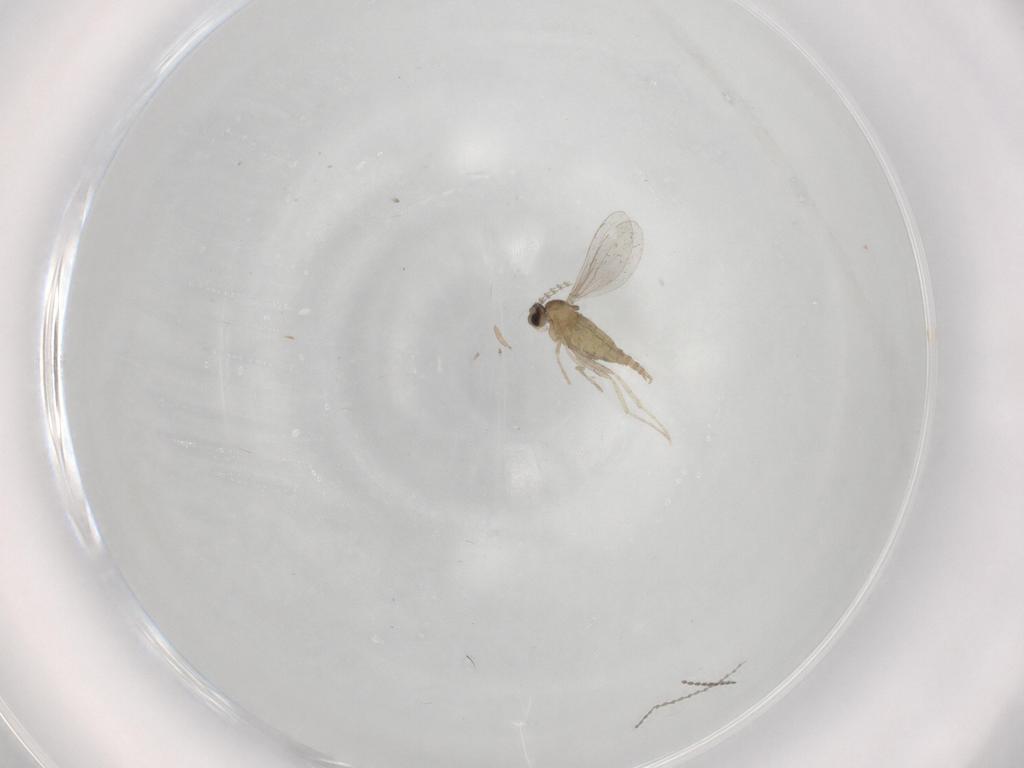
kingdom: Animalia
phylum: Arthropoda
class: Insecta
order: Diptera
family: Cecidomyiidae
